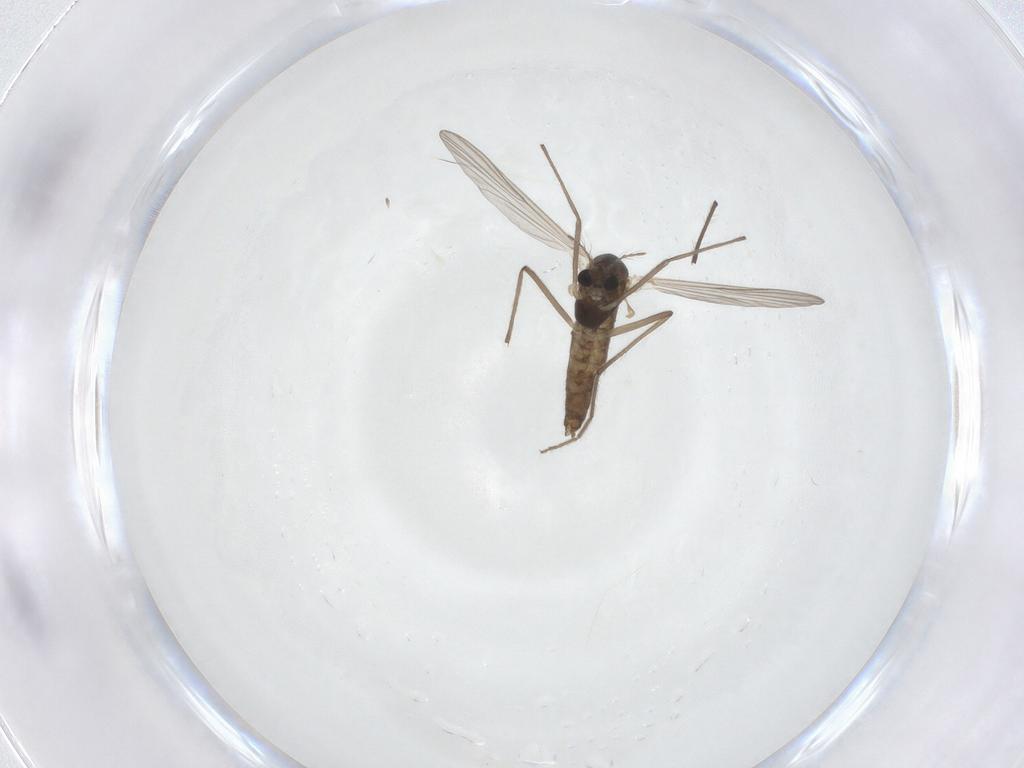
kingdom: Animalia
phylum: Arthropoda
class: Insecta
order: Diptera
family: Chironomidae
